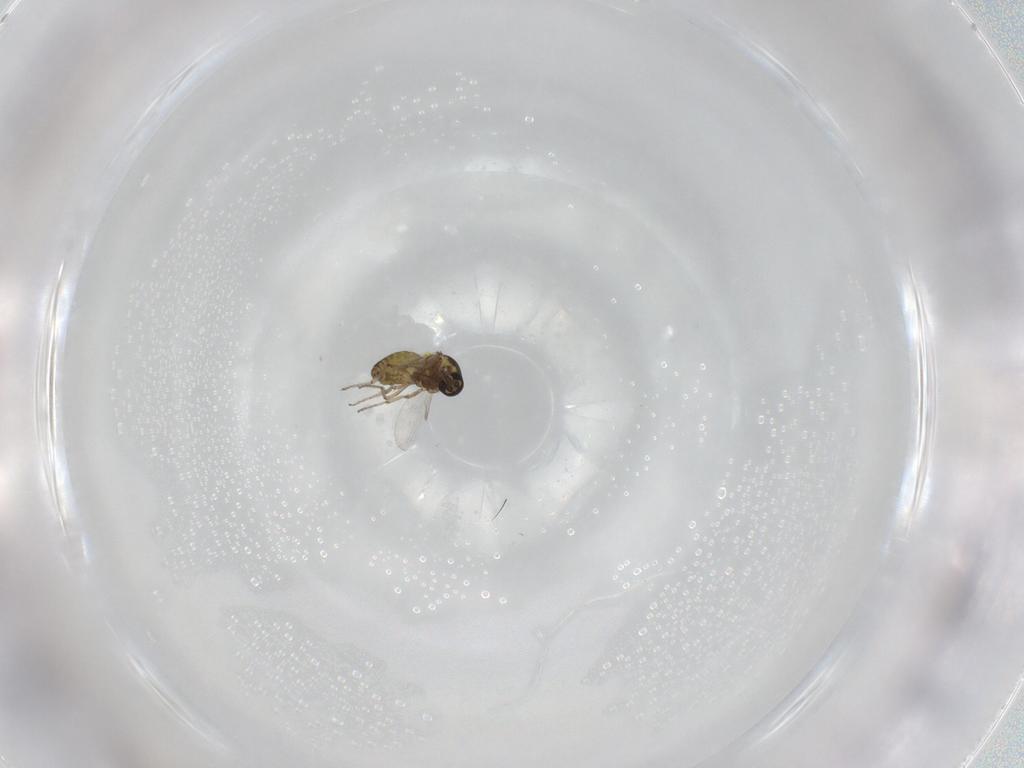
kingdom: Animalia
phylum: Arthropoda
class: Insecta
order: Diptera
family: Ceratopogonidae
